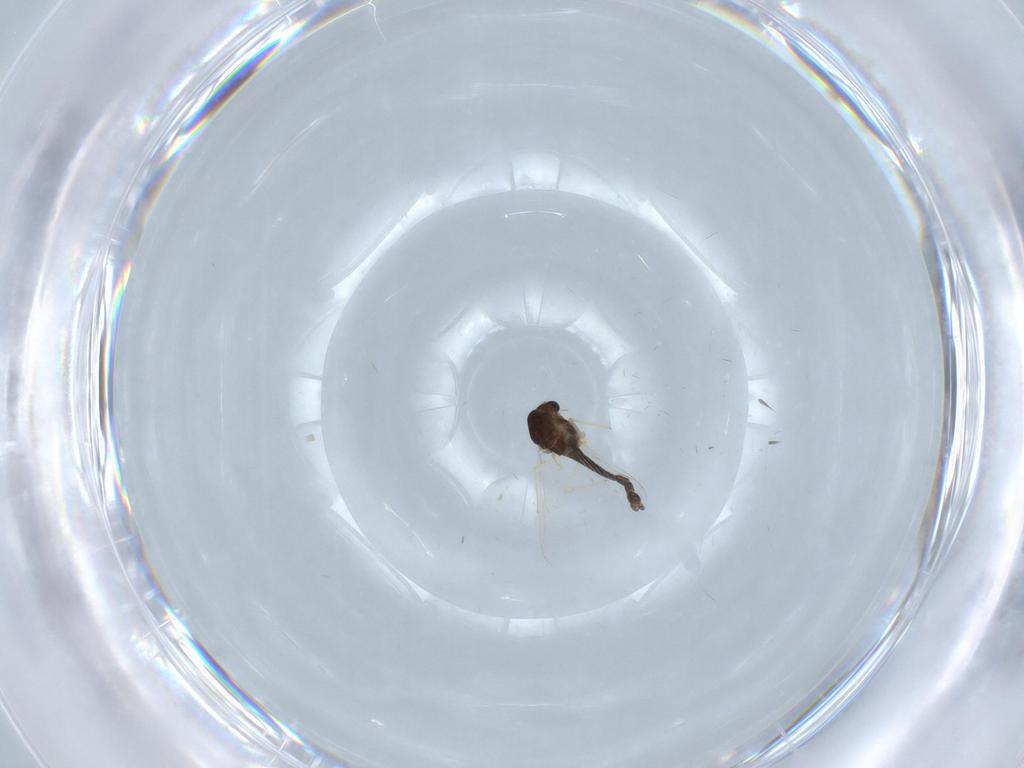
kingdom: Animalia
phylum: Arthropoda
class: Insecta
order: Diptera
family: Chironomidae
